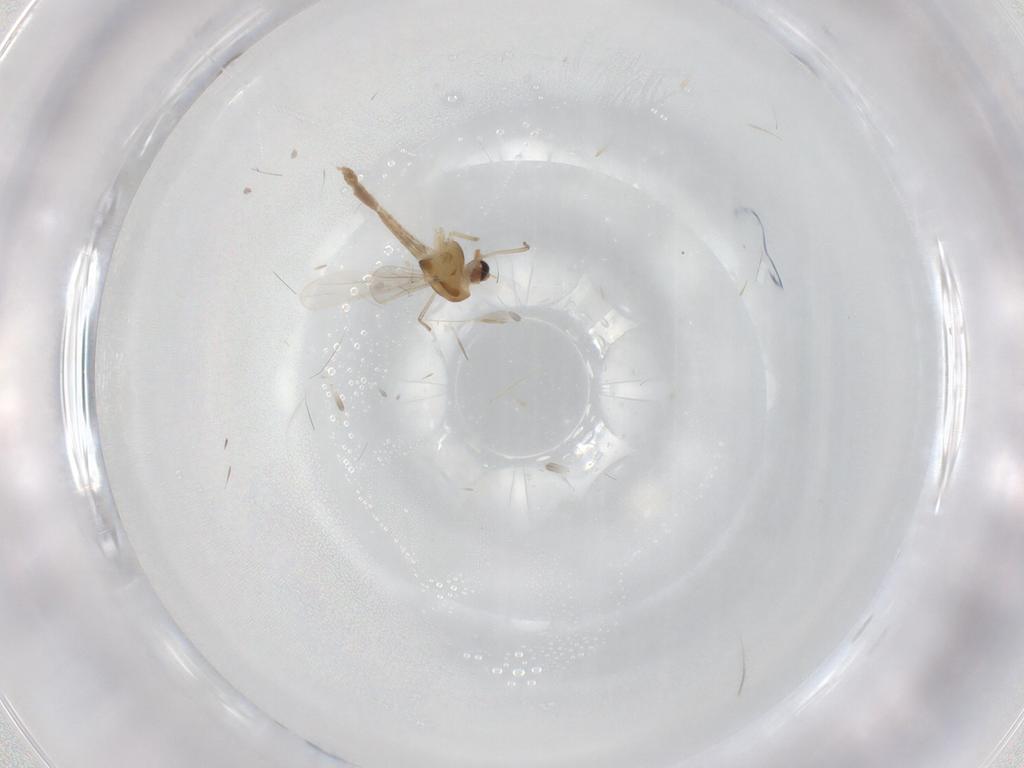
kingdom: Animalia
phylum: Arthropoda
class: Insecta
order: Diptera
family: Chironomidae
